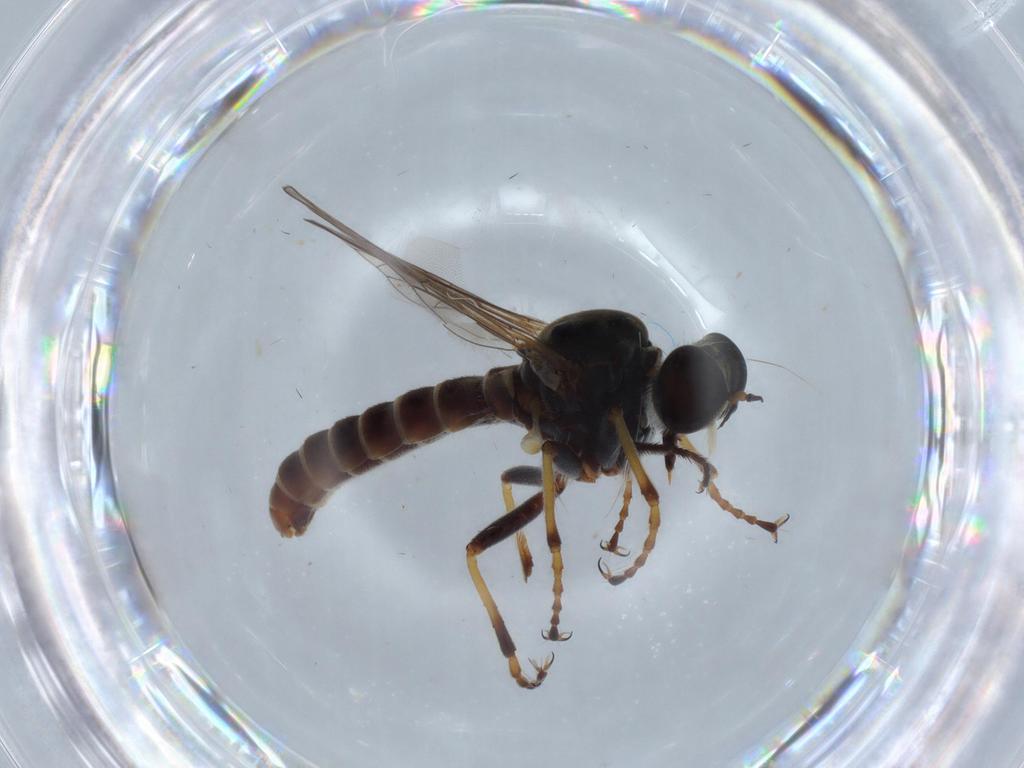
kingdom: Animalia
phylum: Arthropoda
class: Insecta
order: Diptera
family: Ceratopogonidae
